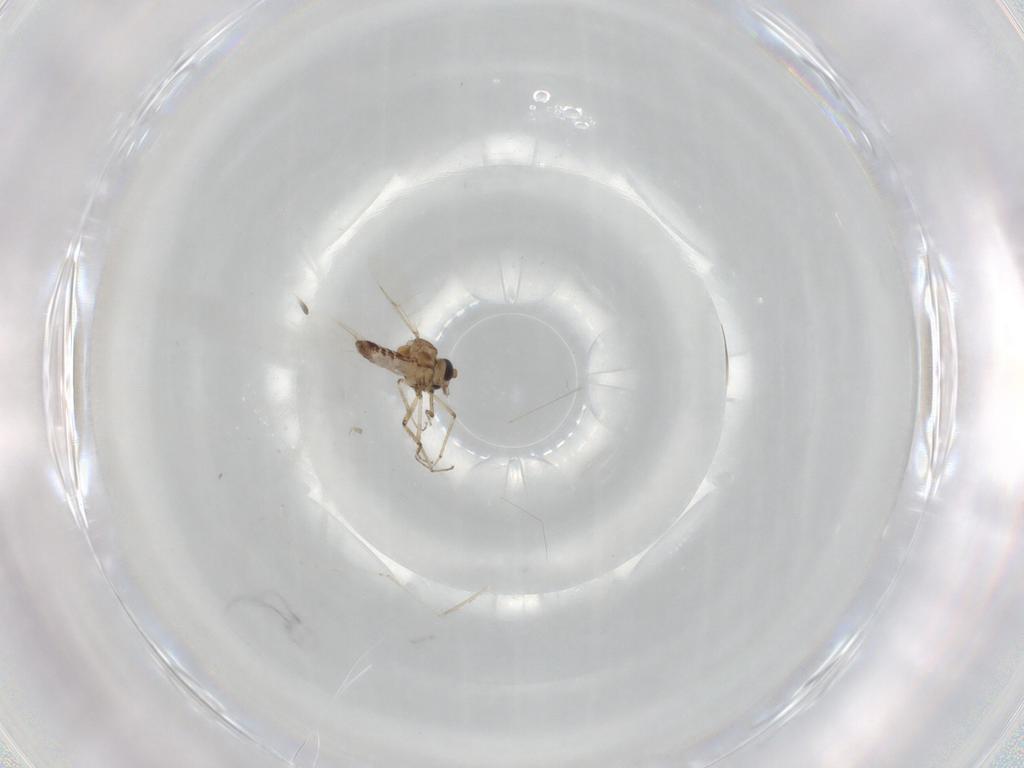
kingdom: Animalia
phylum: Arthropoda
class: Insecta
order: Diptera
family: Ceratopogonidae
